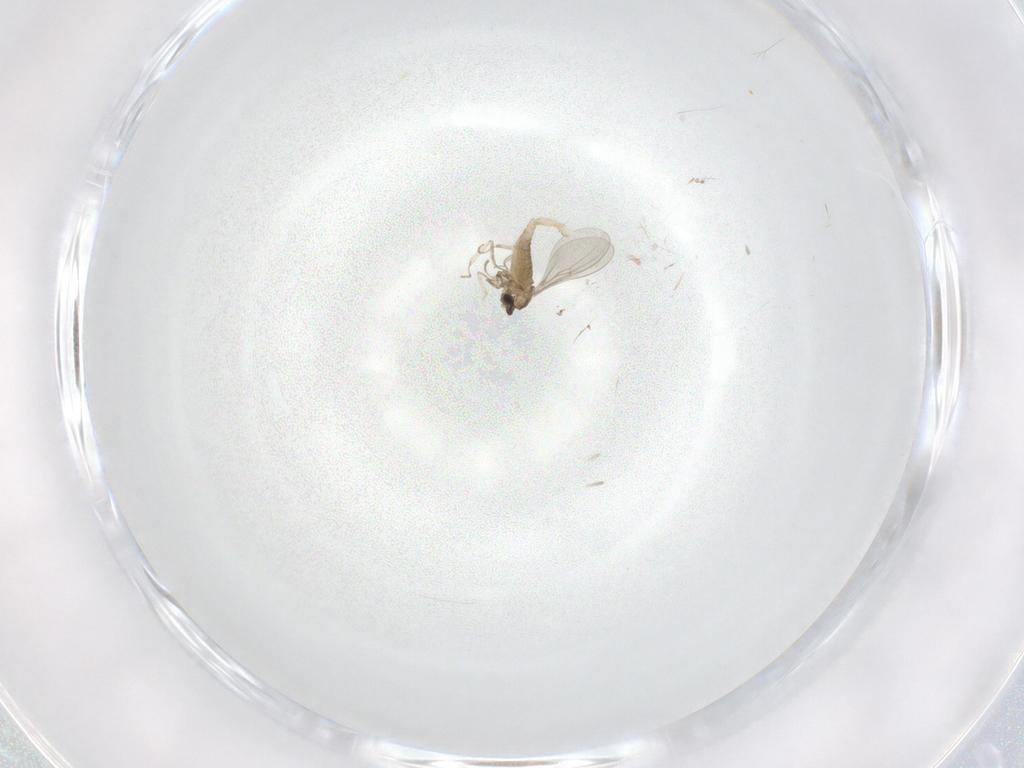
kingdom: Animalia
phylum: Arthropoda
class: Insecta
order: Diptera
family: Cecidomyiidae
